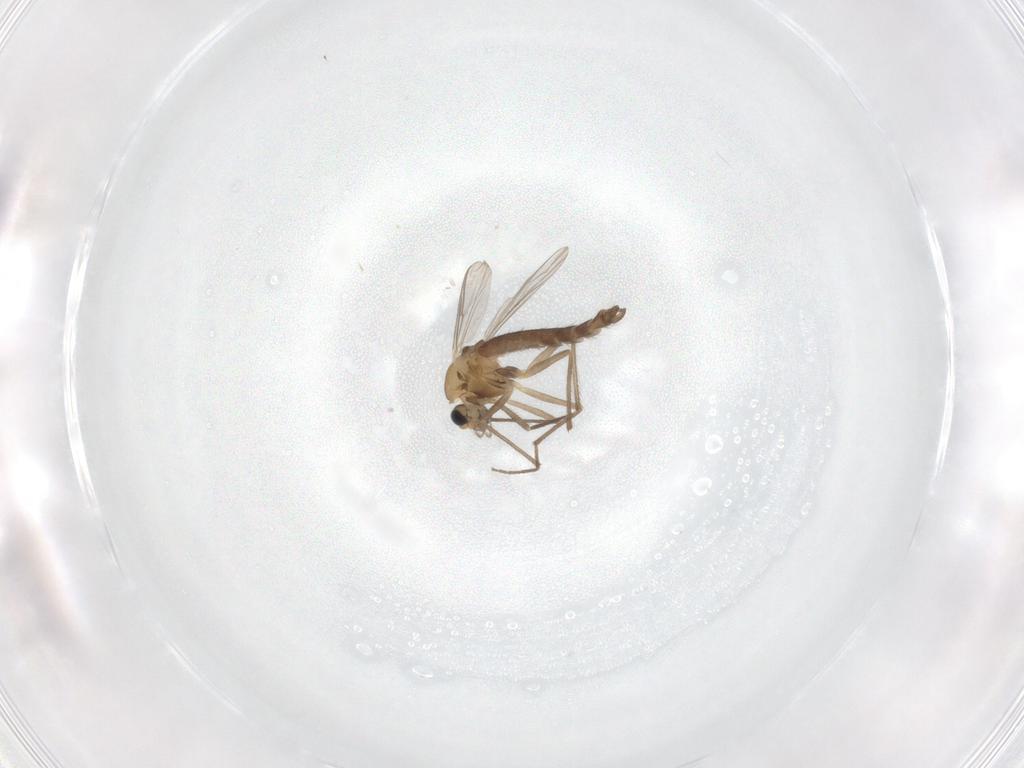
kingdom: Animalia
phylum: Arthropoda
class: Insecta
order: Diptera
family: Chironomidae
